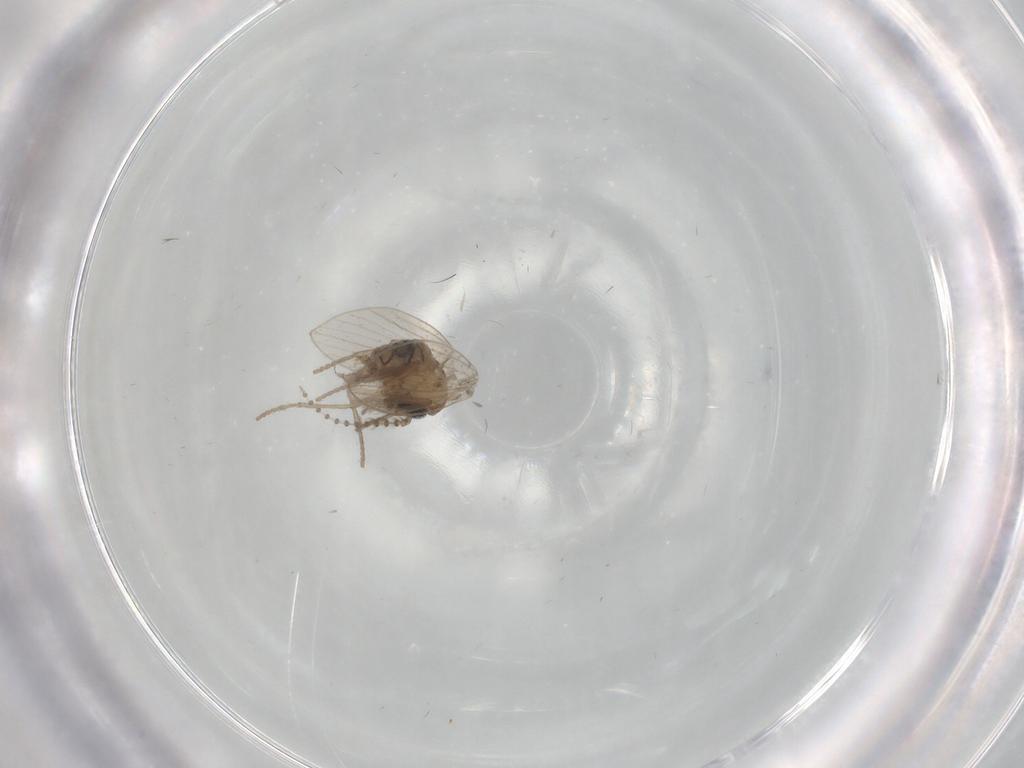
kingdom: Animalia
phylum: Arthropoda
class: Insecta
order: Diptera
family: Psychodidae
